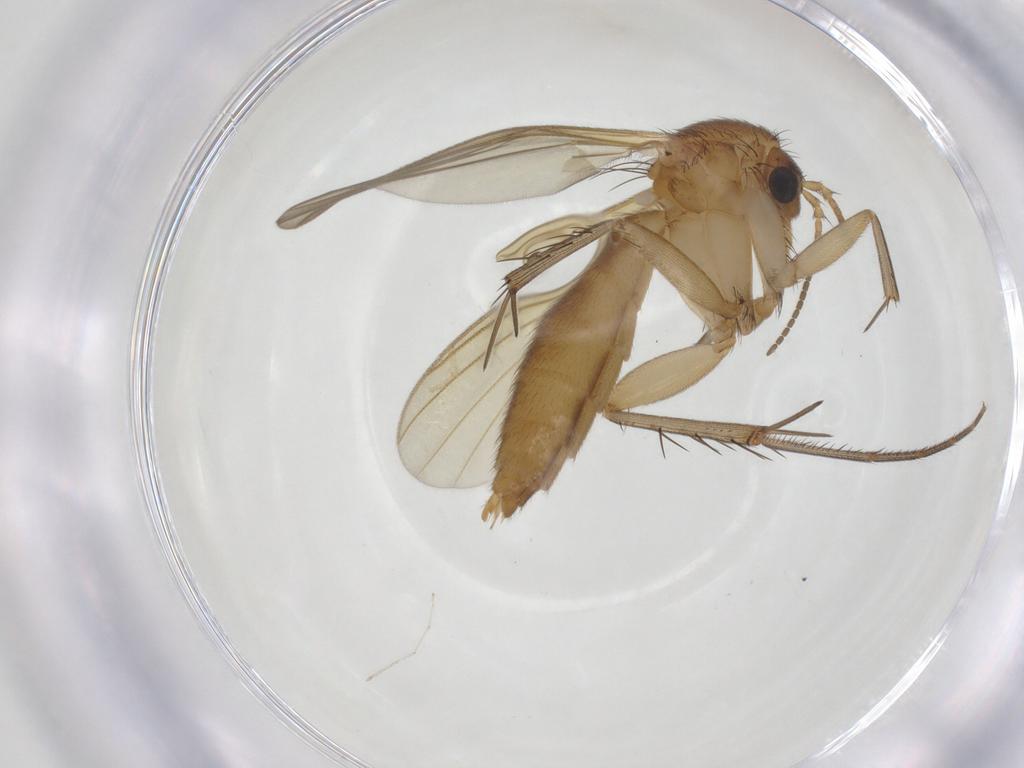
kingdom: Animalia
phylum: Arthropoda
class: Insecta
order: Diptera
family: Mycetophilidae
